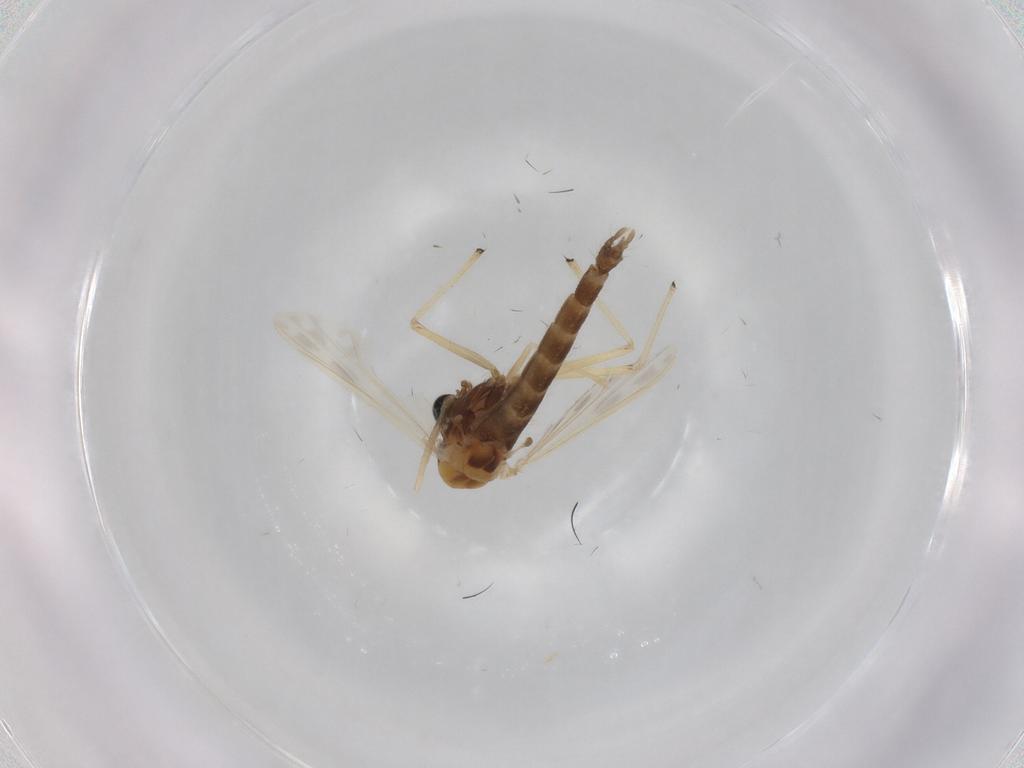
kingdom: Animalia
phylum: Arthropoda
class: Insecta
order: Diptera
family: Chironomidae
